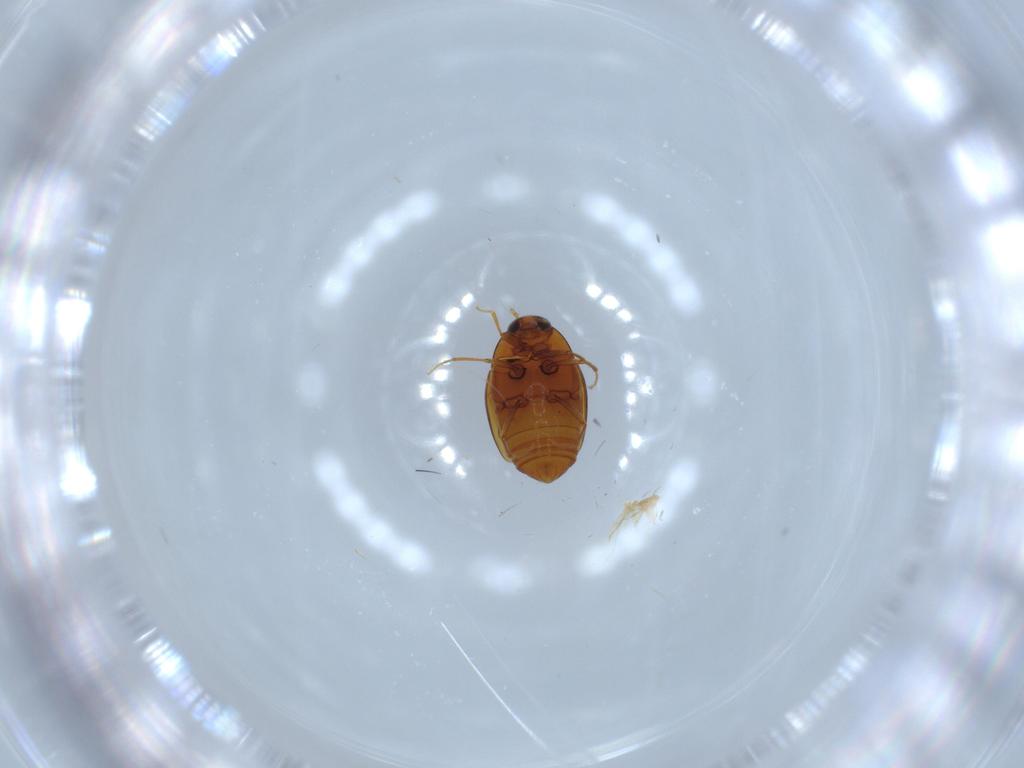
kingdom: Animalia
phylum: Arthropoda
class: Insecta
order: Coleoptera
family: Staphylinidae
